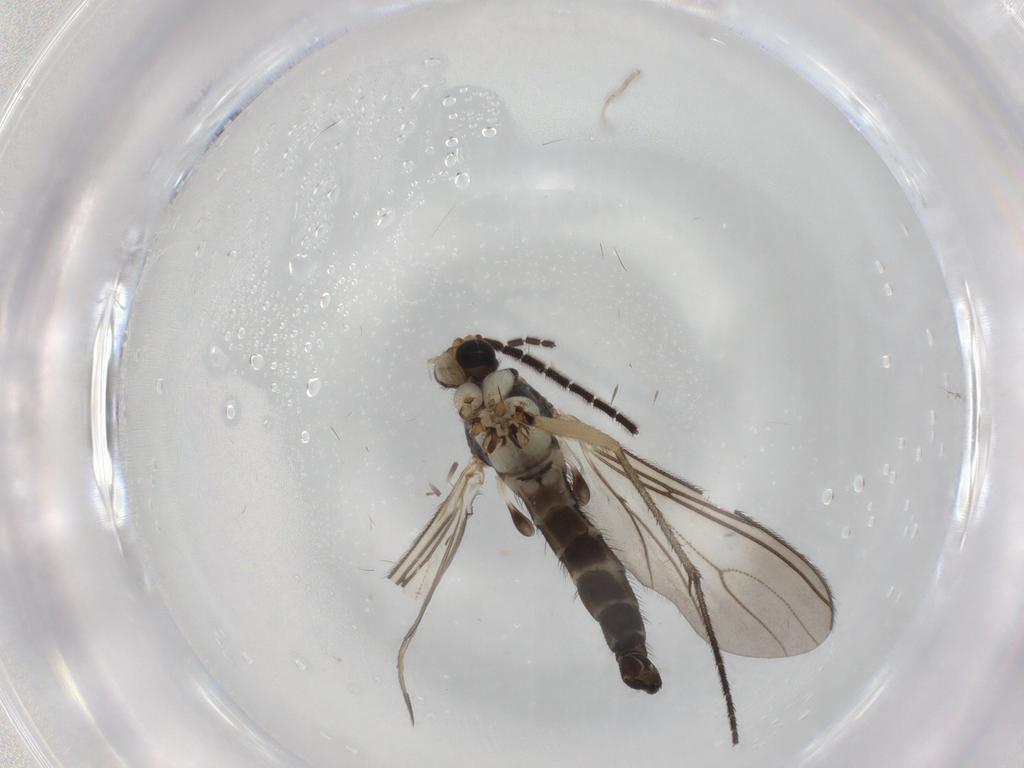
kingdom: Animalia
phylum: Arthropoda
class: Insecta
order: Diptera
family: Sciaridae
